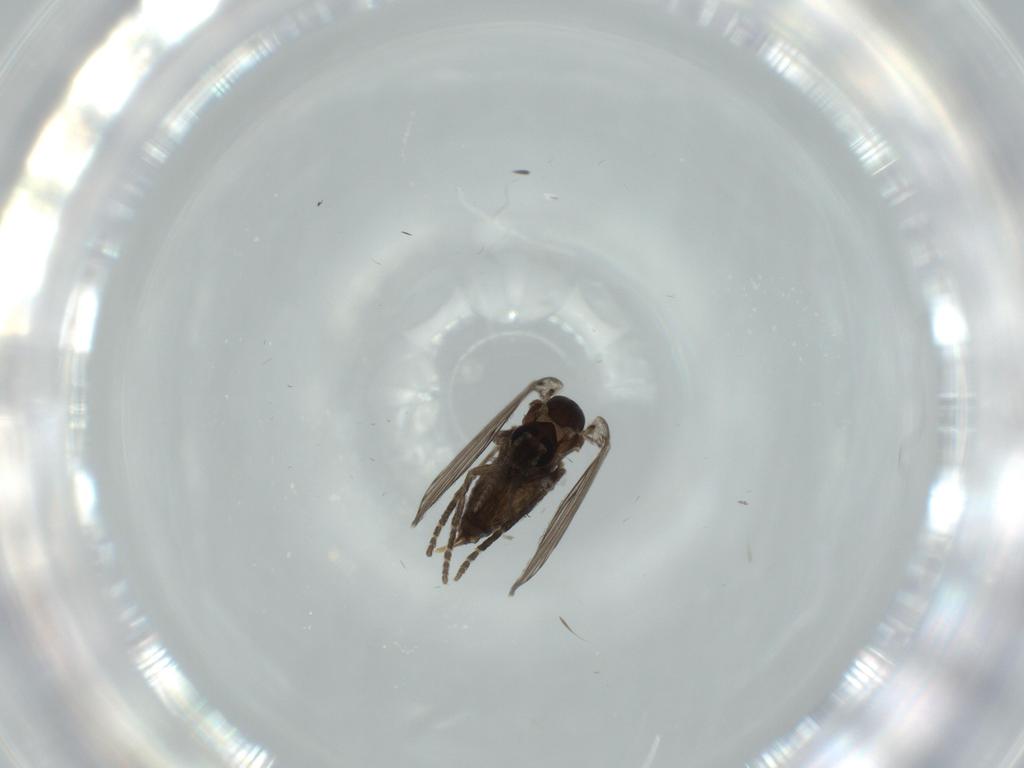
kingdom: Animalia
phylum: Arthropoda
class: Insecta
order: Diptera
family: Psychodidae
